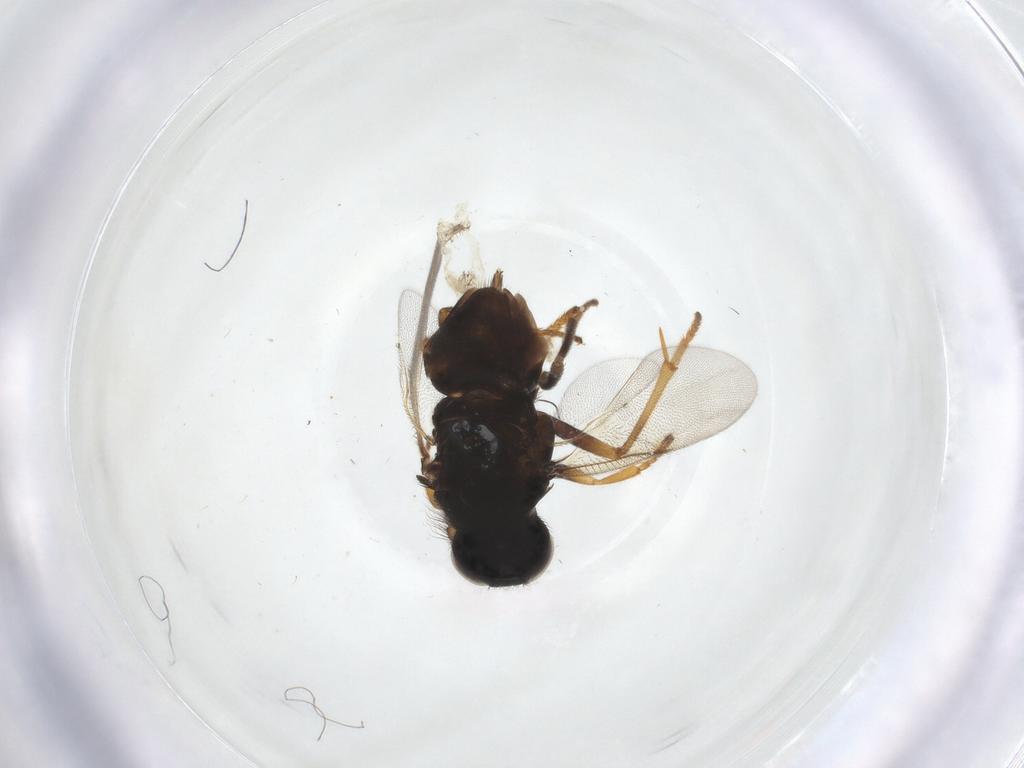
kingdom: Animalia
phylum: Arthropoda
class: Insecta
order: Hymenoptera
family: Braconidae
